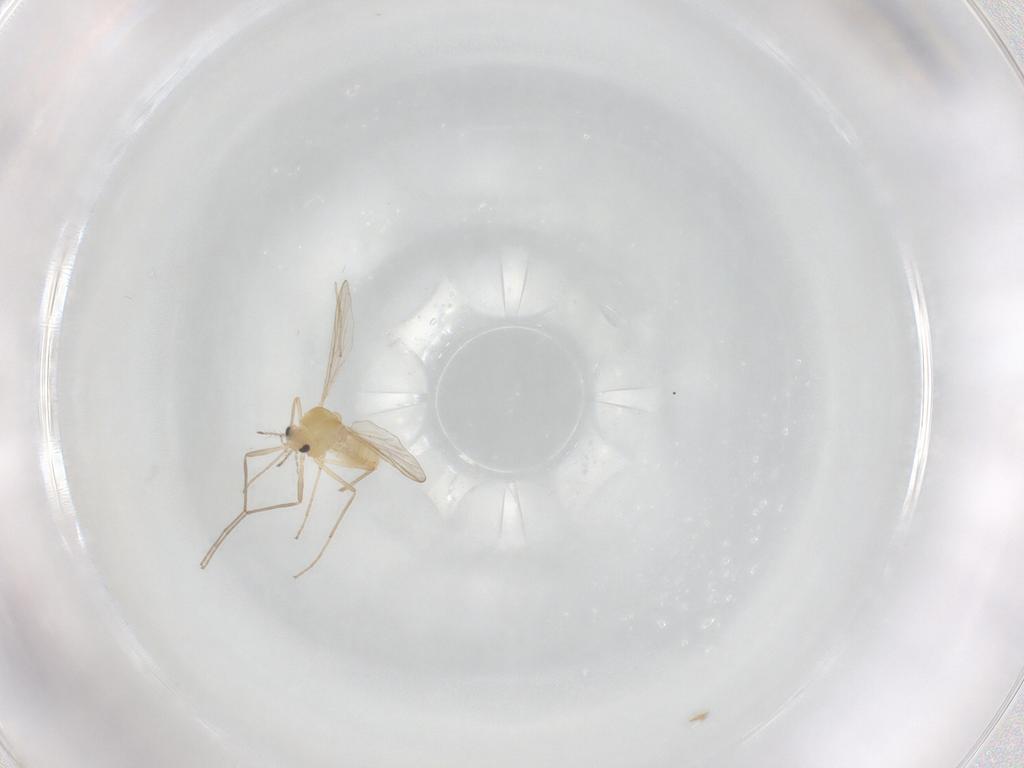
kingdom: Animalia
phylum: Arthropoda
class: Insecta
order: Diptera
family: Chironomidae
